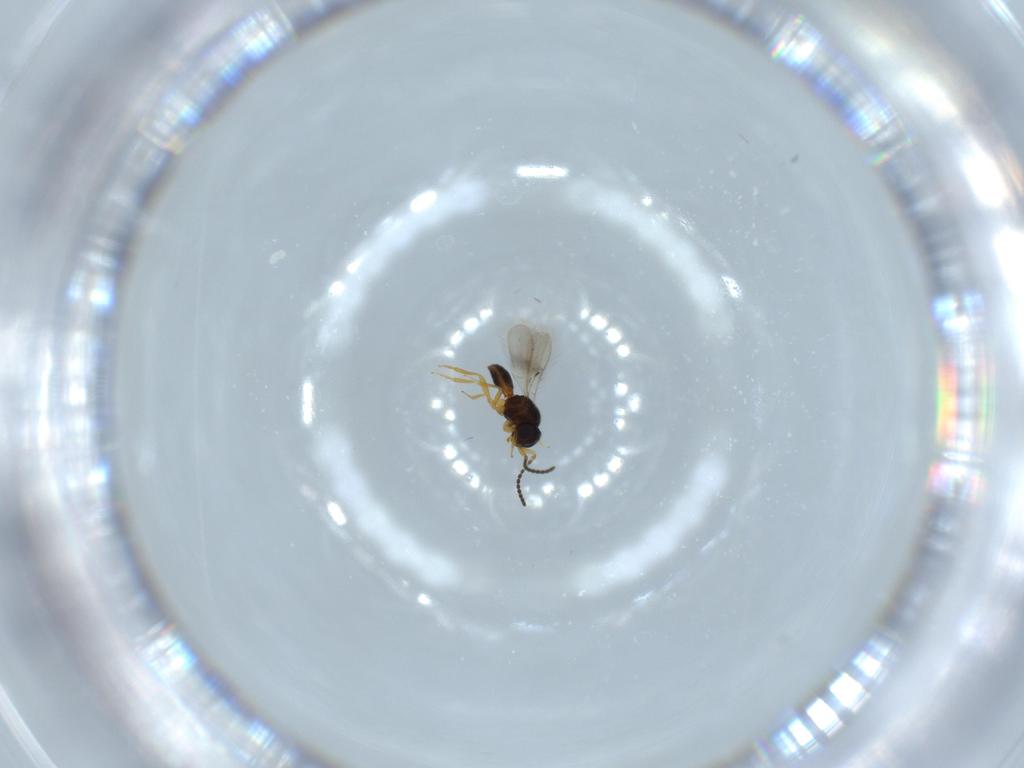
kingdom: Animalia
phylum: Arthropoda
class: Insecta
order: Hymenoptera
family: Scelionidae
